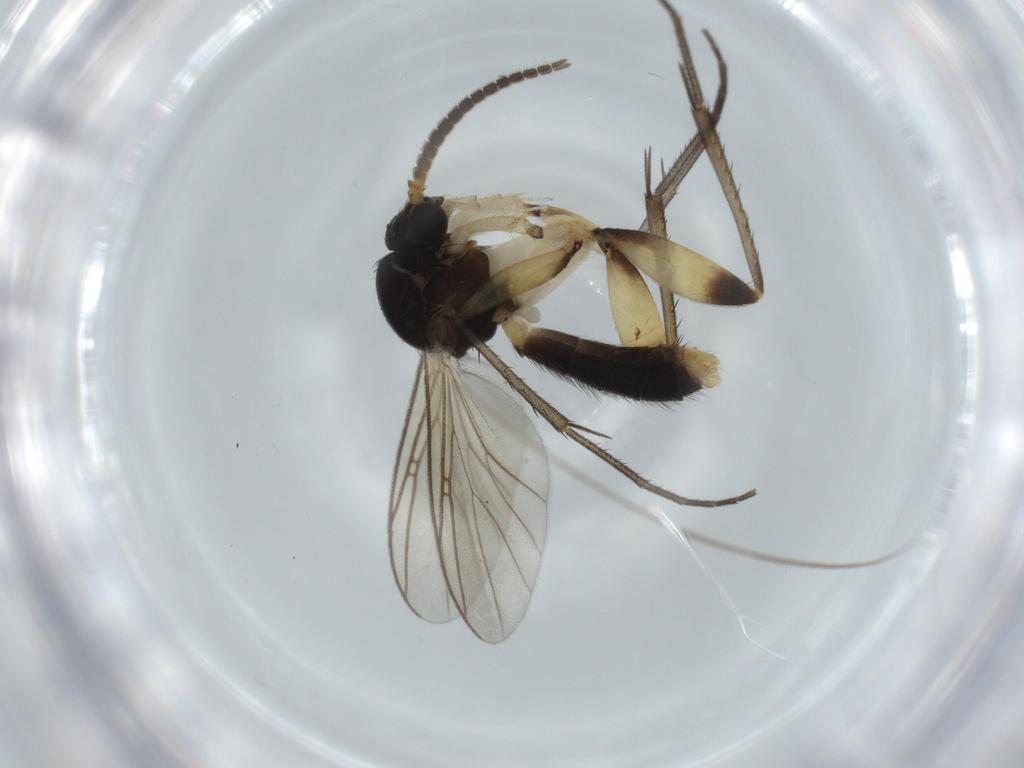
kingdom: Animalia
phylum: Arthropoda
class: Insecta
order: Diptera
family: Mycetophilidae
